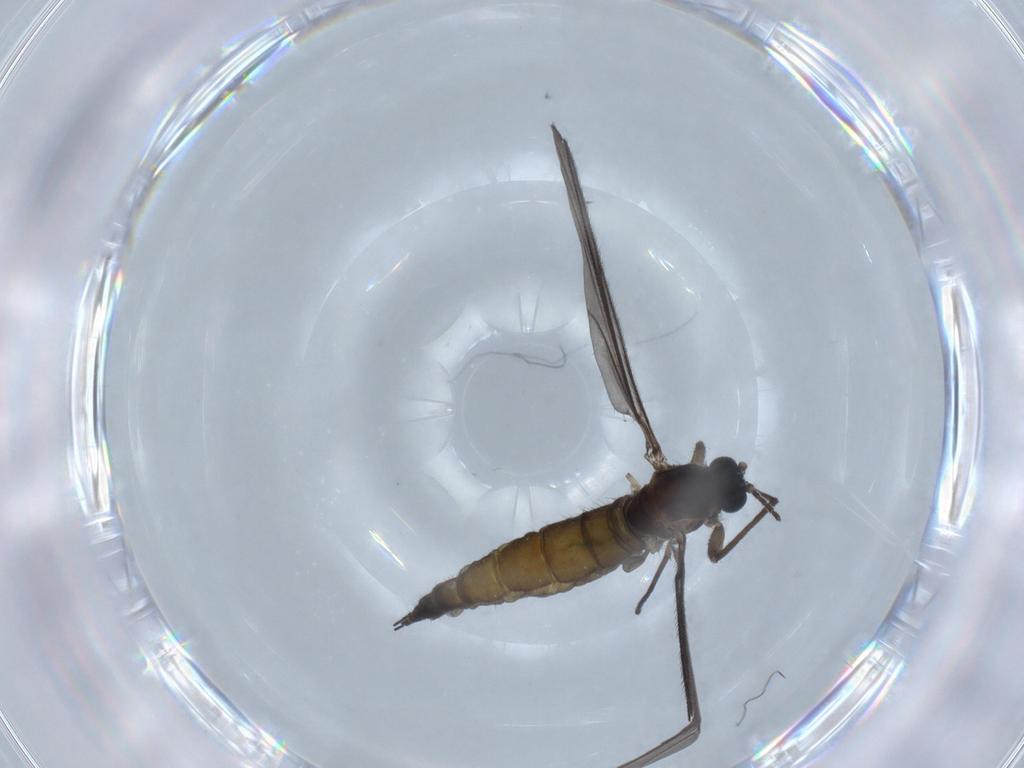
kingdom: Animalia
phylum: Arthropoda
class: Insecta
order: Diptera
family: Sciaridae
